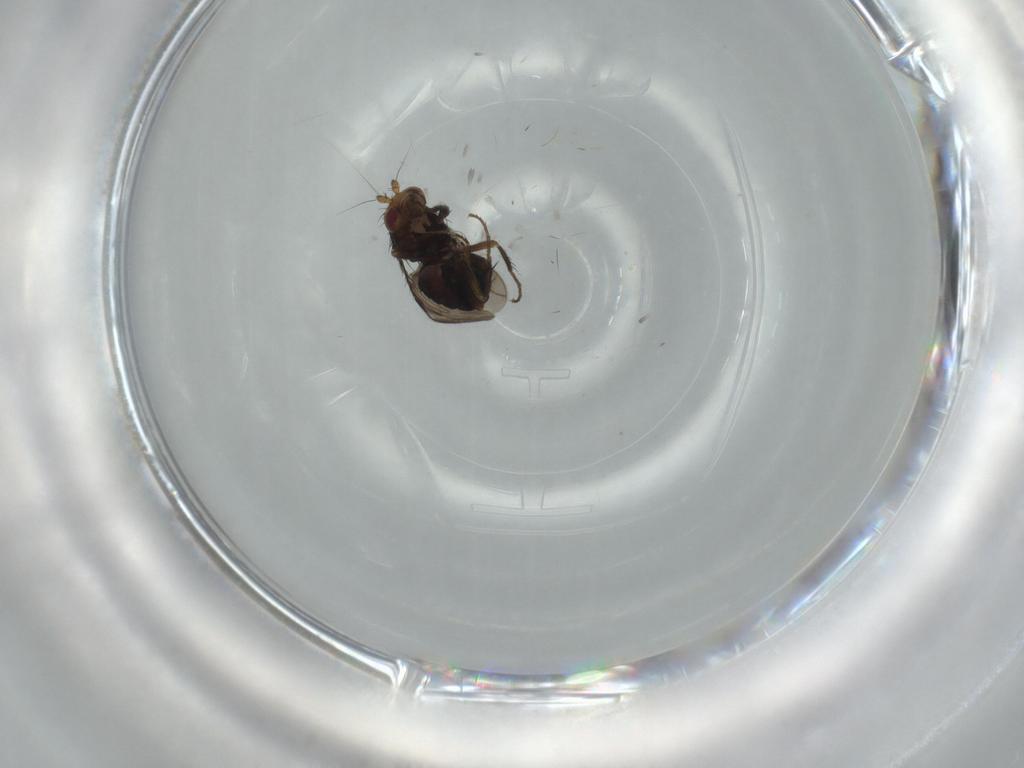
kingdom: Animalia
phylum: Arthropoda
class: Insecta
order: Diptera
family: Sphaeroceridae
